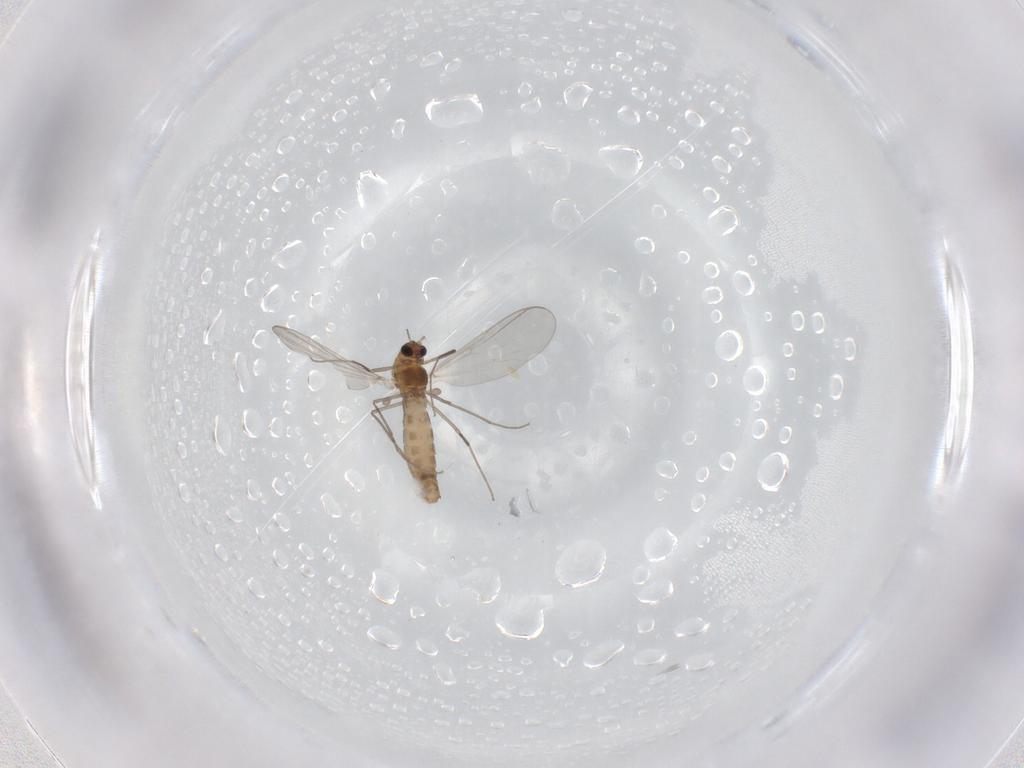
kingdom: Animalia
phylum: Arthropoda
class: Insecta
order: Diptera
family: Chironomidae
